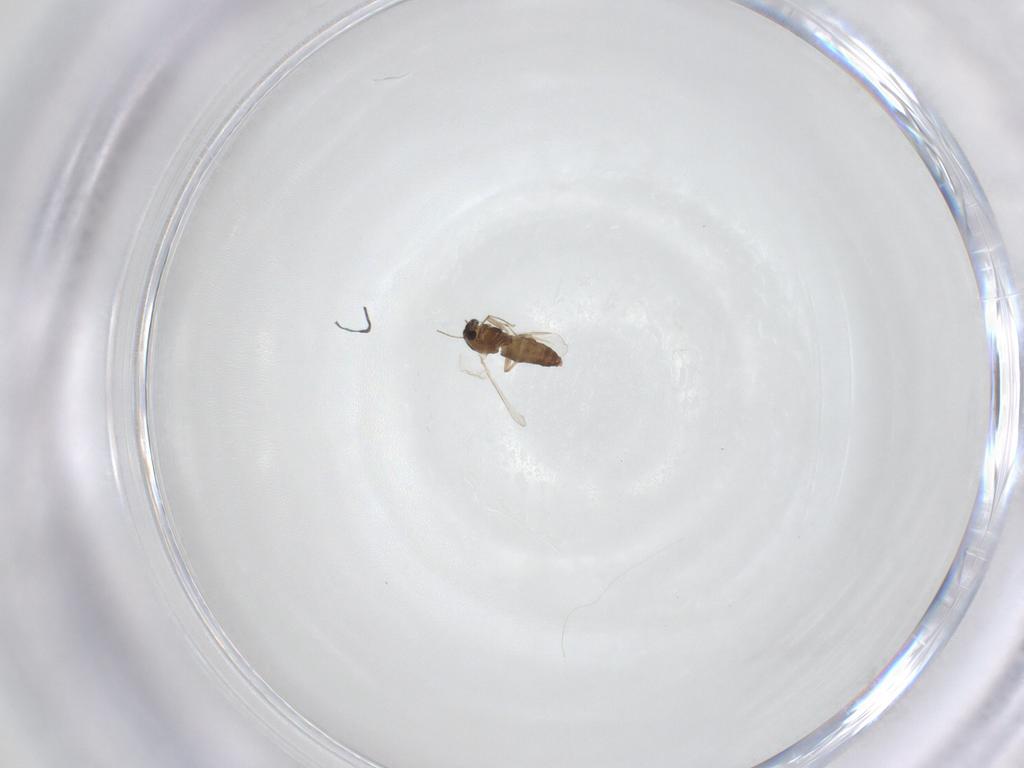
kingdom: Animalia
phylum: Arthropoda
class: Insecta
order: Diptera
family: Chironomidae
